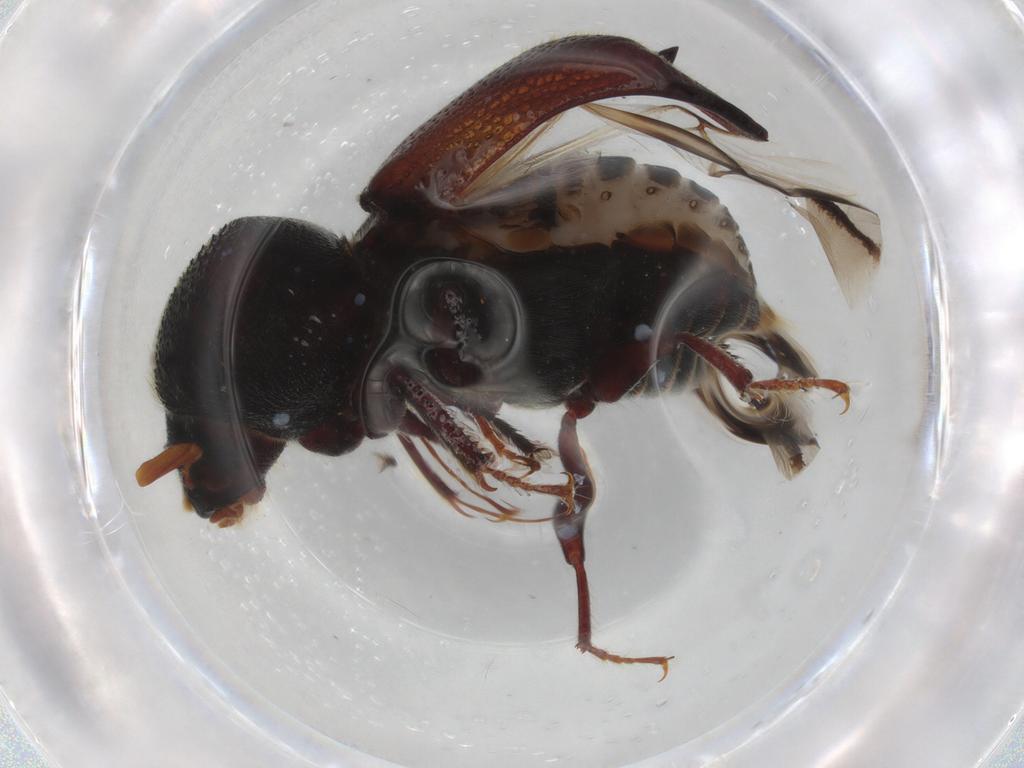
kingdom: Animalia
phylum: Arthropoda
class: Insecta
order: Coleoptera
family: Bostrichidae
